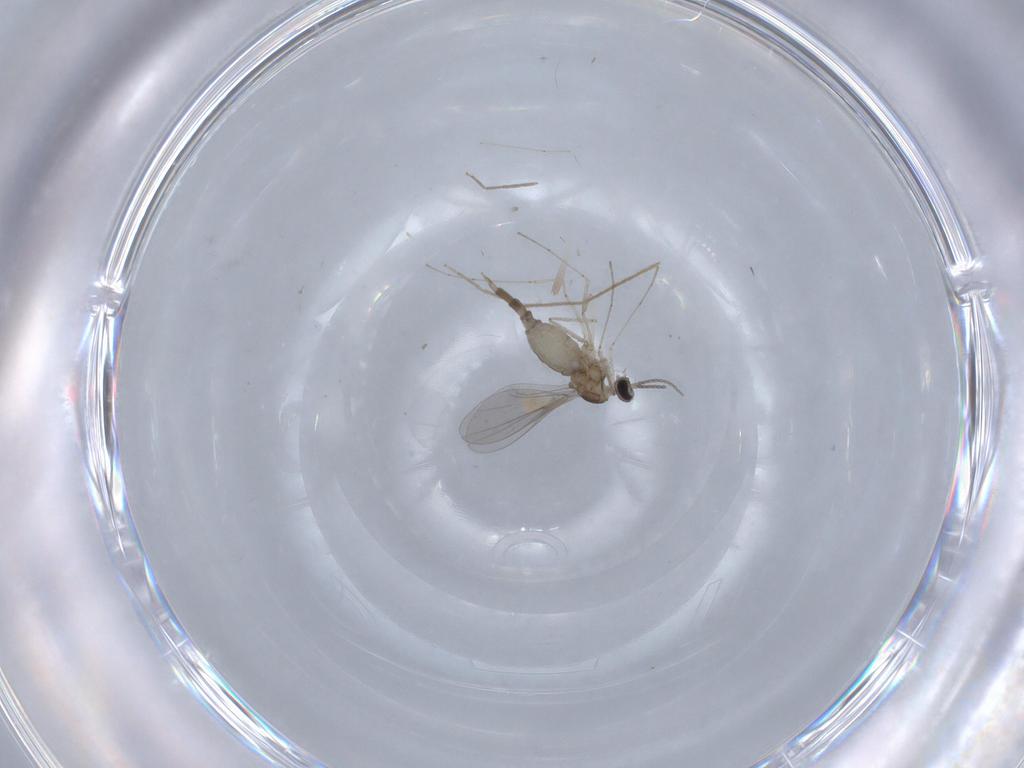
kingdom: Animalia
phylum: Arthropoda
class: Insecta
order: Diptera
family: Cecidomyiidae
